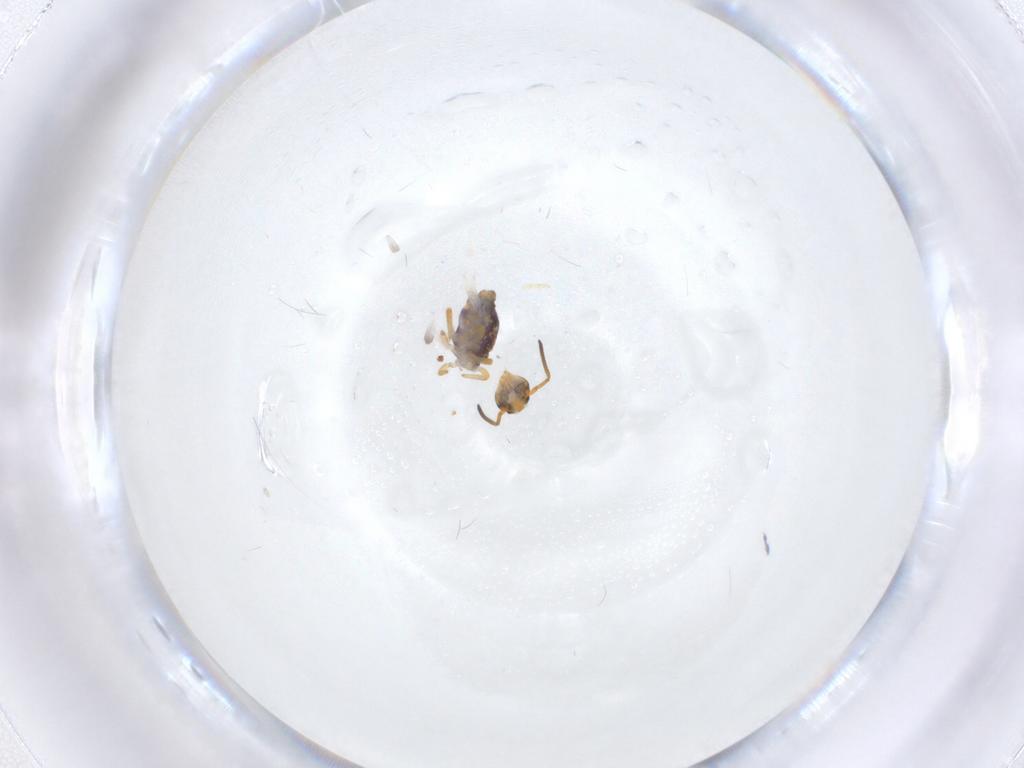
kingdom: Animalia
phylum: Arthropoda
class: Collembola
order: Symphypleona
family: Katiannidae
